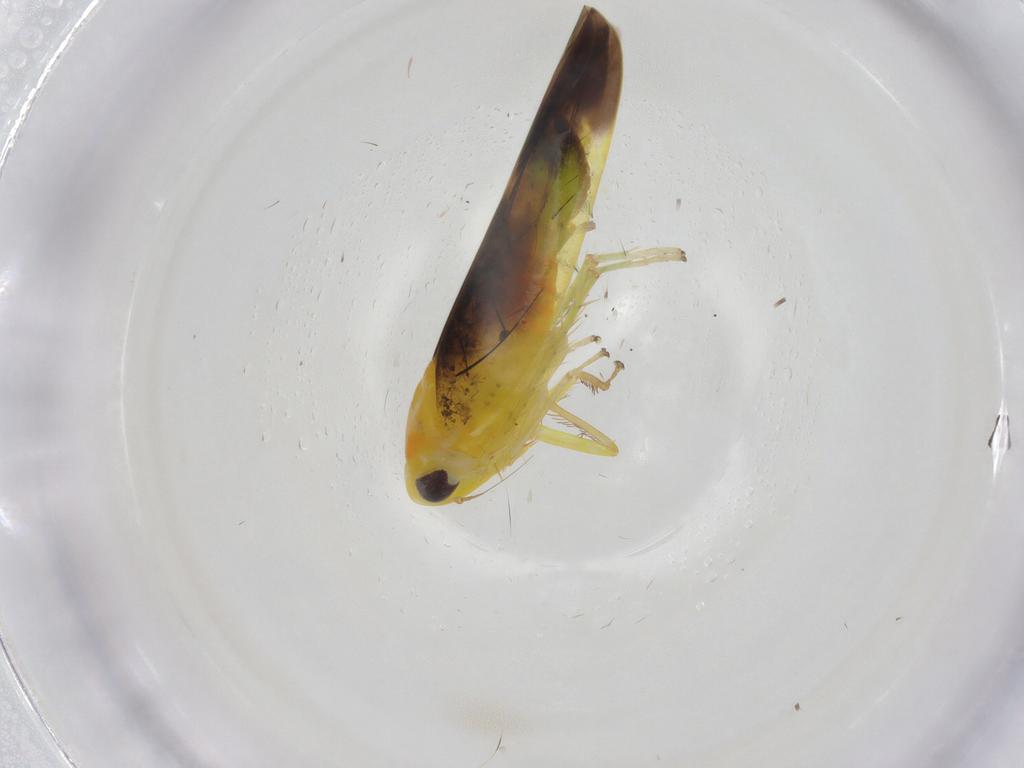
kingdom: Animalia
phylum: Arthropoda
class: Insecta
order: Hemiptera
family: Cicadellidae
